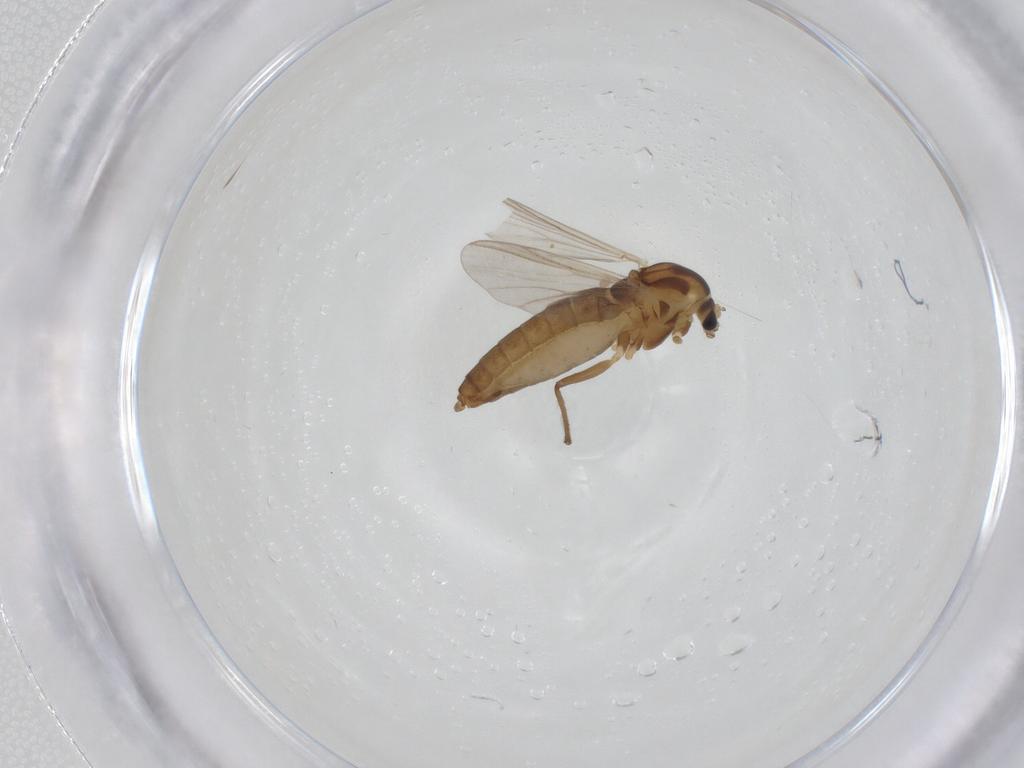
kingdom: Animalia
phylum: Arthropoda
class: Insecta
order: Diptera
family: Chironomidae
